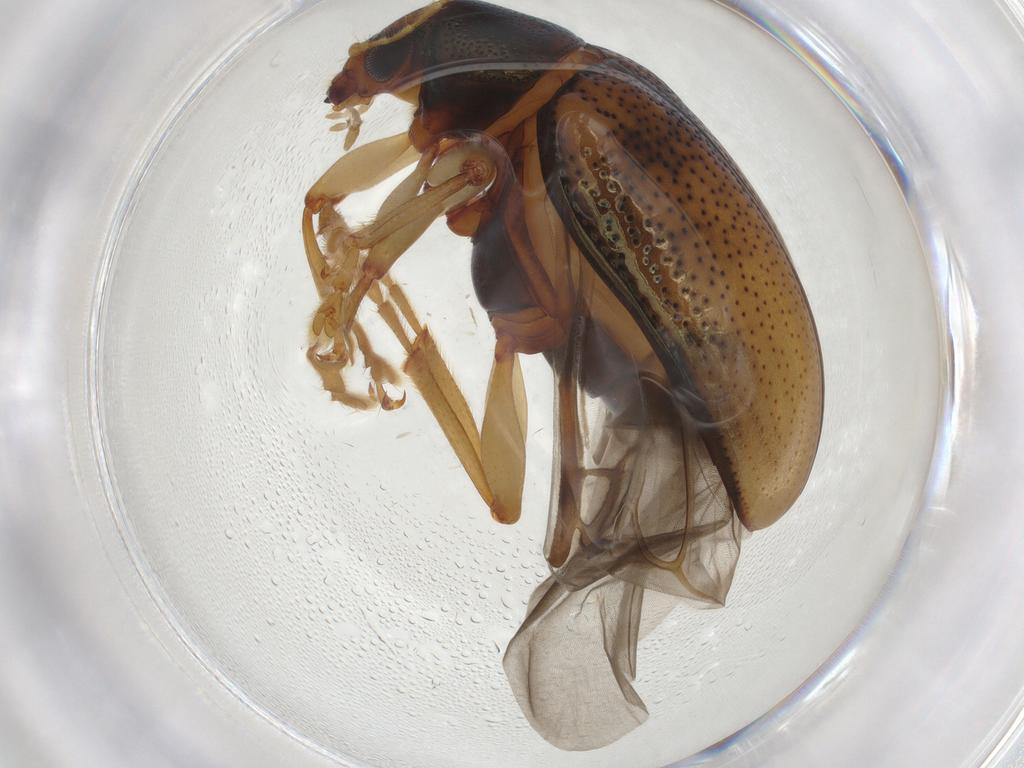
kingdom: Animalia
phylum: Arthropoda
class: Insecta
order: Coleoptera
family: Chrysomelidae
